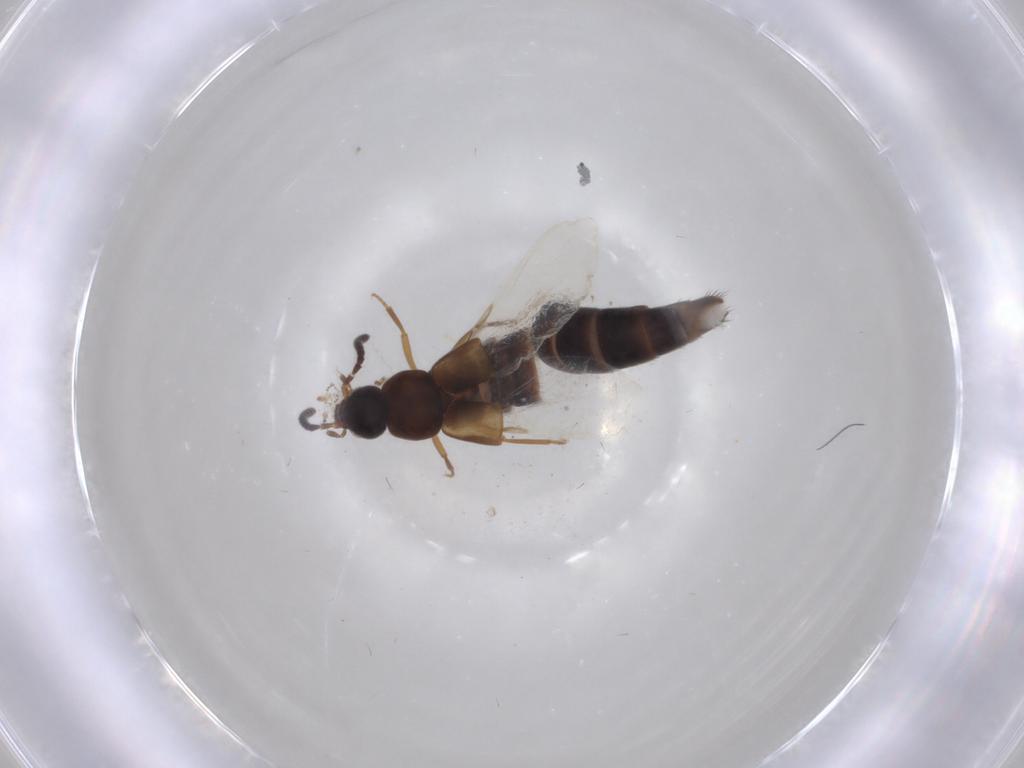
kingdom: Animalia
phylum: Arthropoda
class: Insecta
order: Coleoptera
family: Staphylinidae
